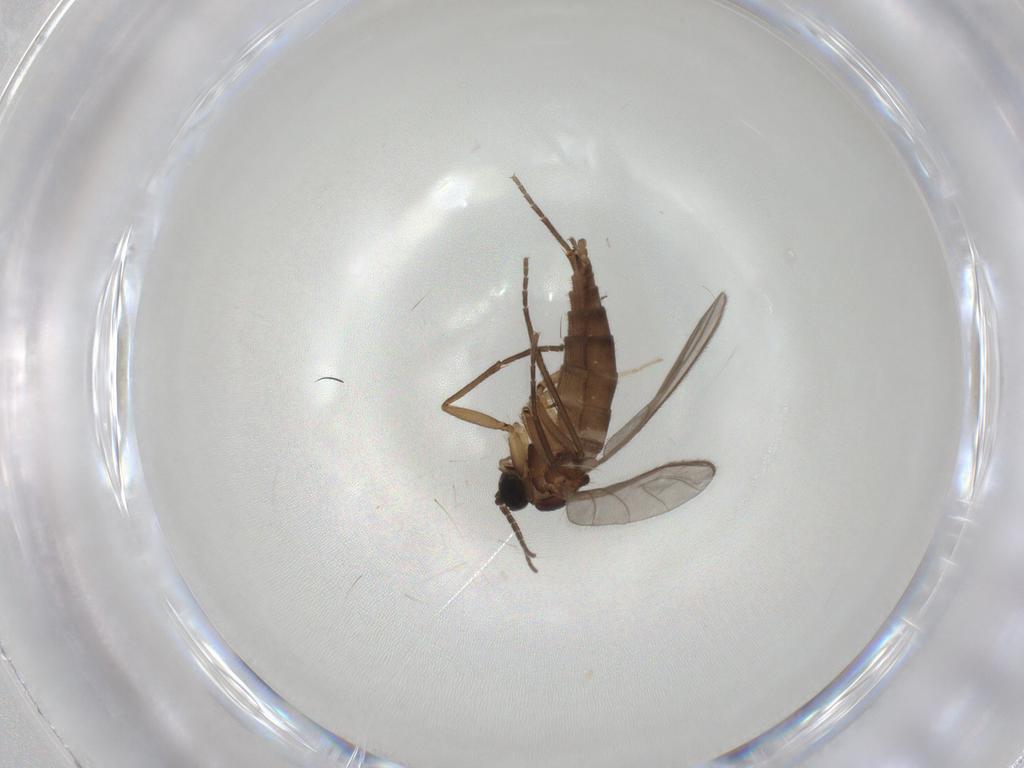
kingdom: Animalia
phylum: Arthropoda
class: Insecta
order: Diptera
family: Sciaridae
